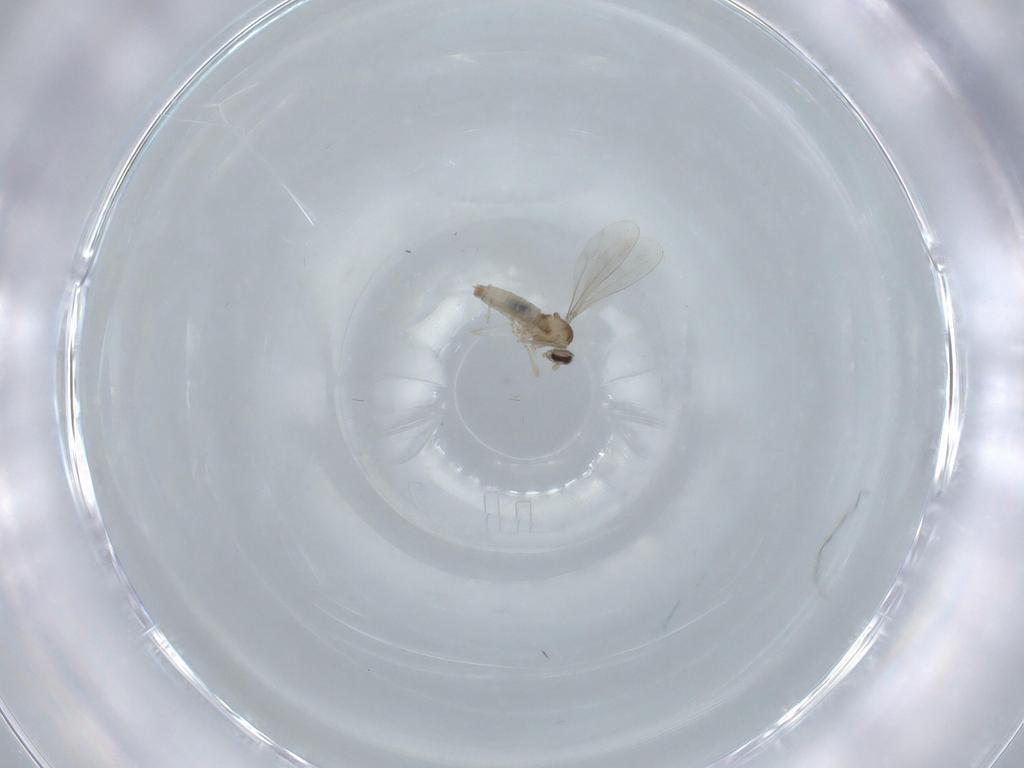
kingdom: Animalia
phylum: Arthropoda
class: Insecta
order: Diptera
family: Cecidomyiidae
